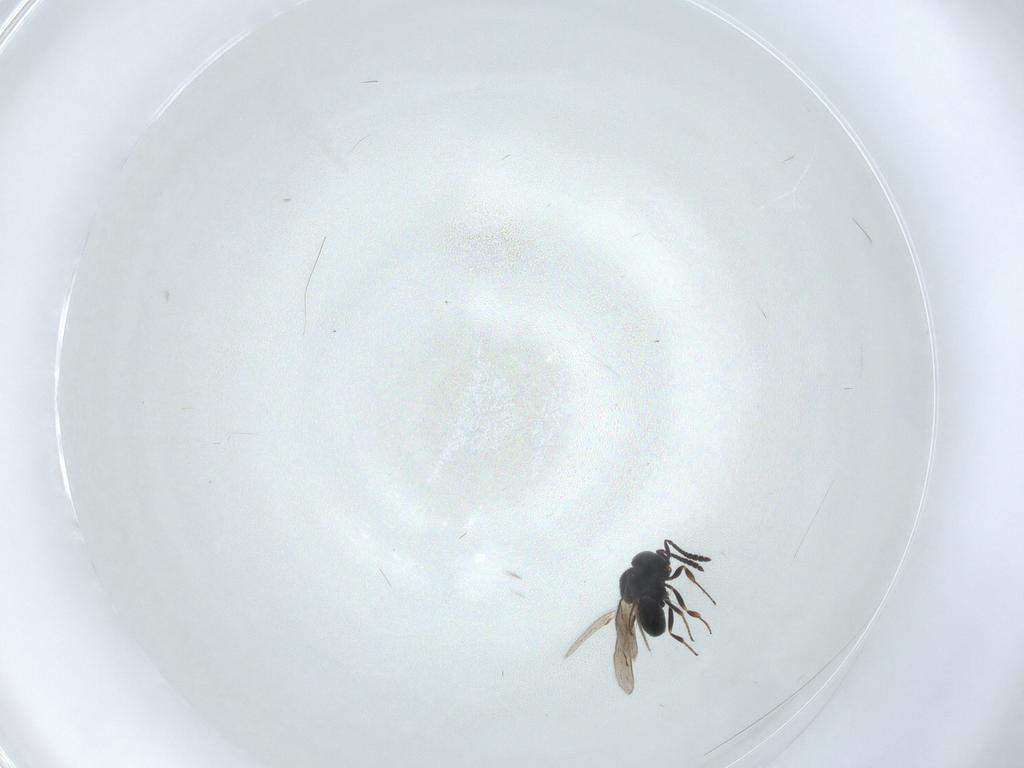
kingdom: Animalia
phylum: Arthropoda
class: Insecta
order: Hymenoptera
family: Scelionidae
